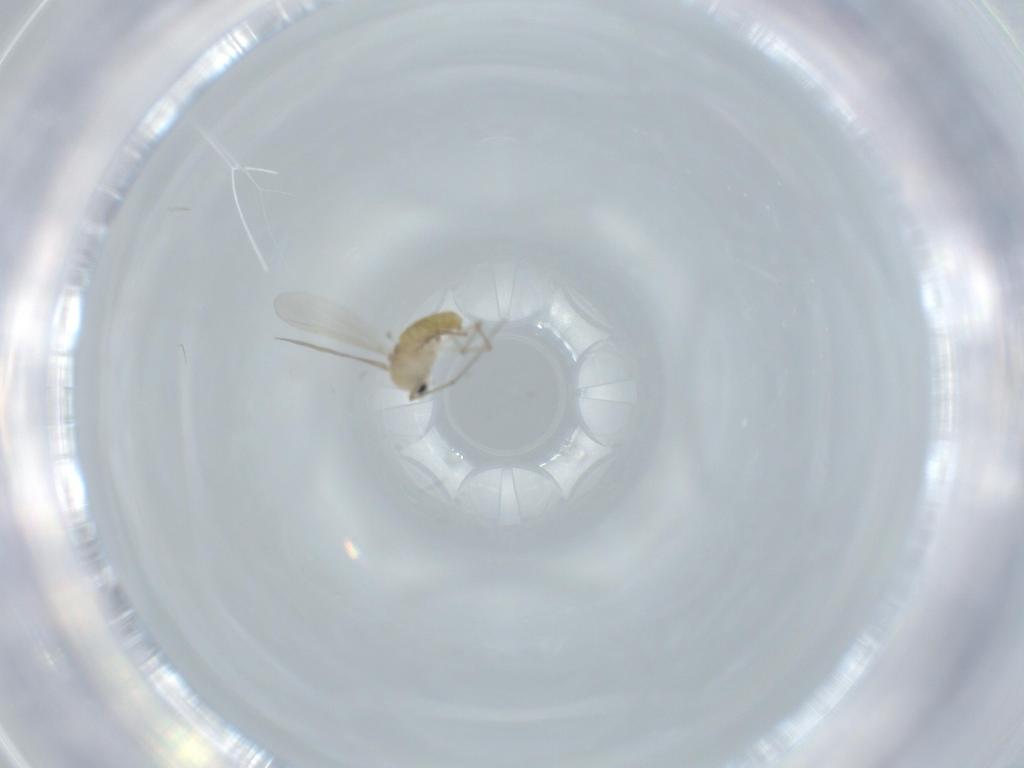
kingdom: Animalia
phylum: Arthropoda
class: Insecta
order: Diptera
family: Chironomidae
